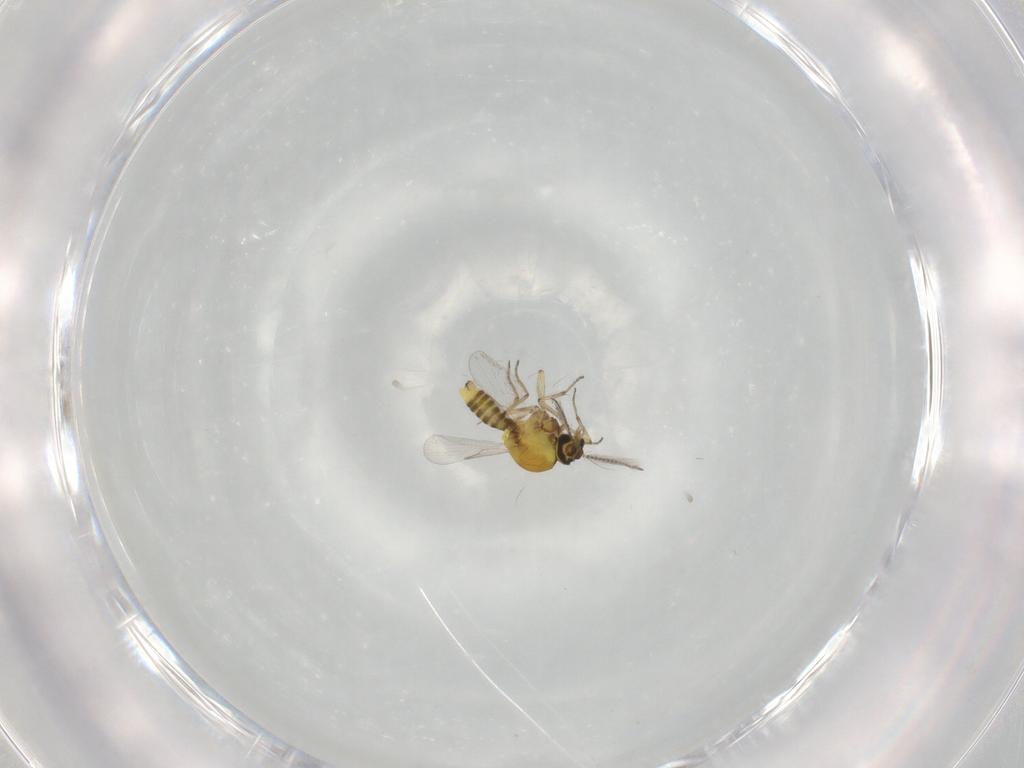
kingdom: Animalia
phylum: Arthropoda
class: Insecta
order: Diptera
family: Ceratopogonidae
